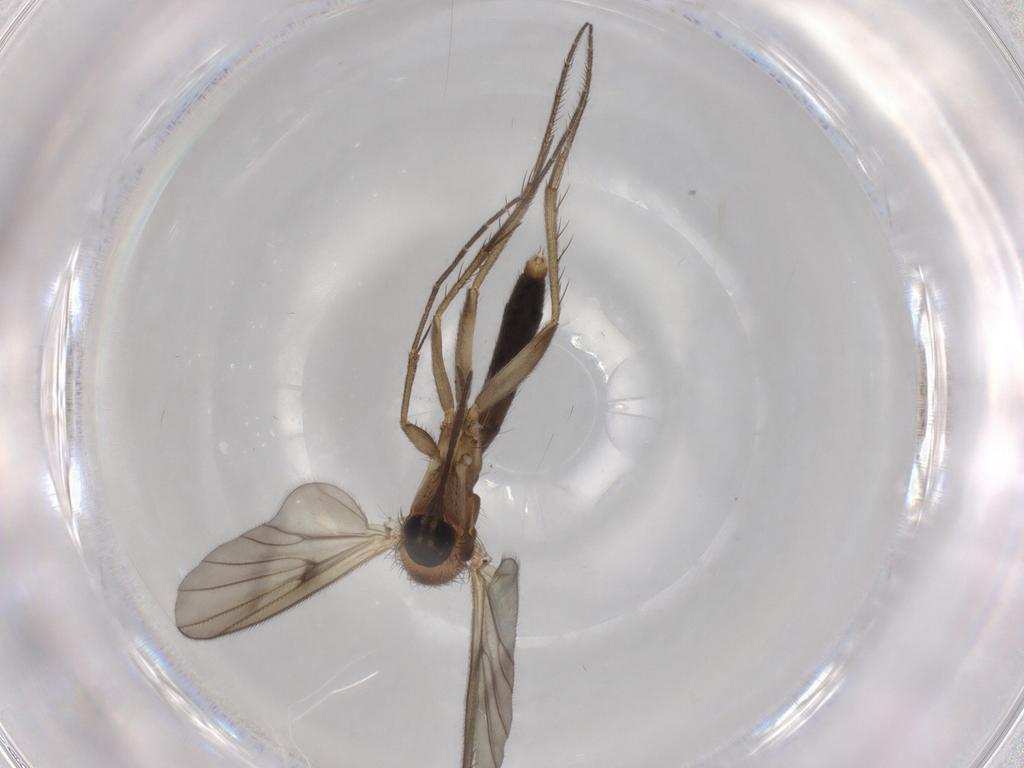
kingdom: Animalia
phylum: Arthropoda
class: Insecta
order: Diptera
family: Mycetophilidae
